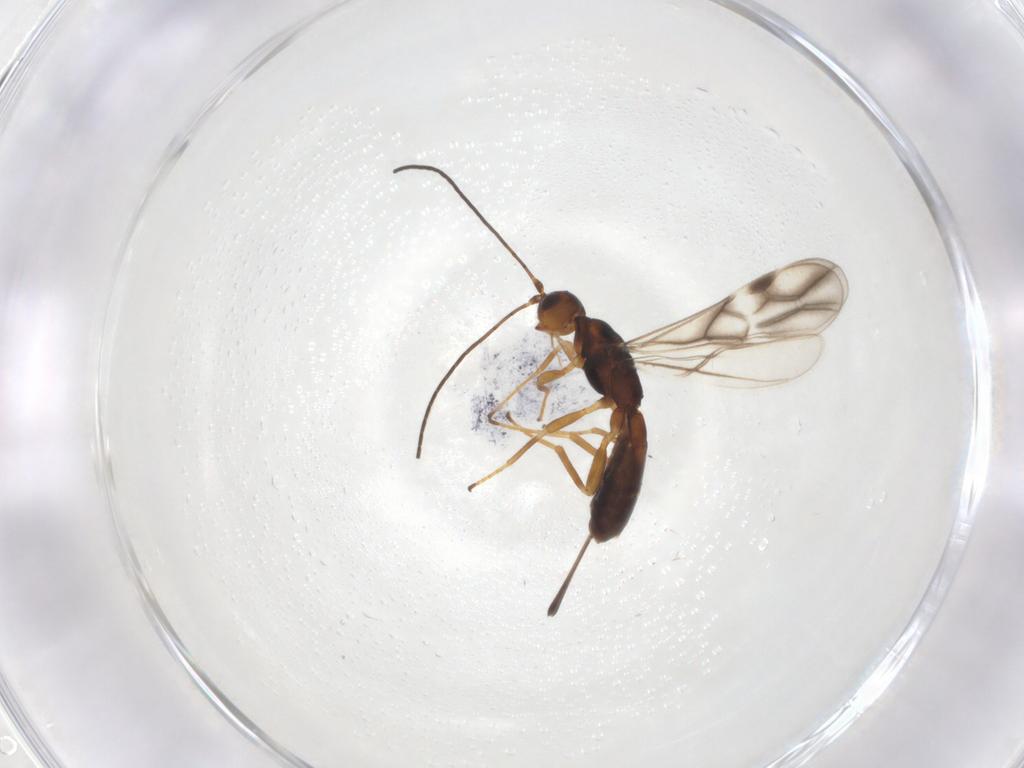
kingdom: Animalia
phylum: Arthropoda
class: Insecta
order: Hymenoptera
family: Braconidae
